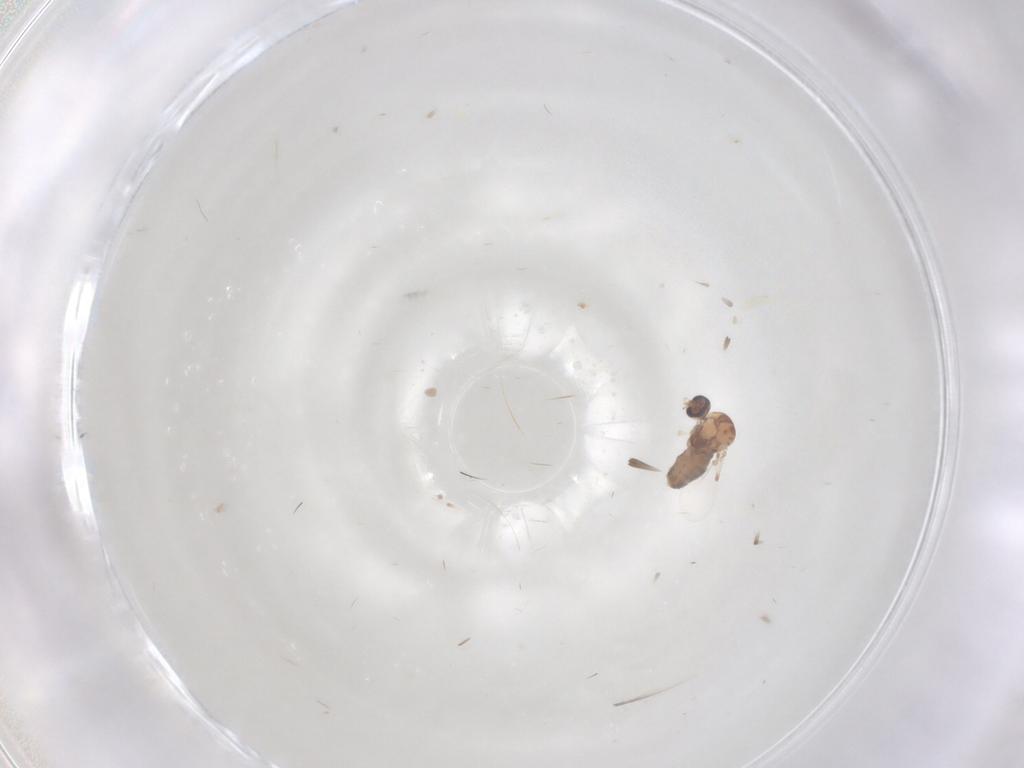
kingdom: Animalia
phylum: Arthropoda
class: Insecta
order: Diptera
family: Ceratopogonidae
